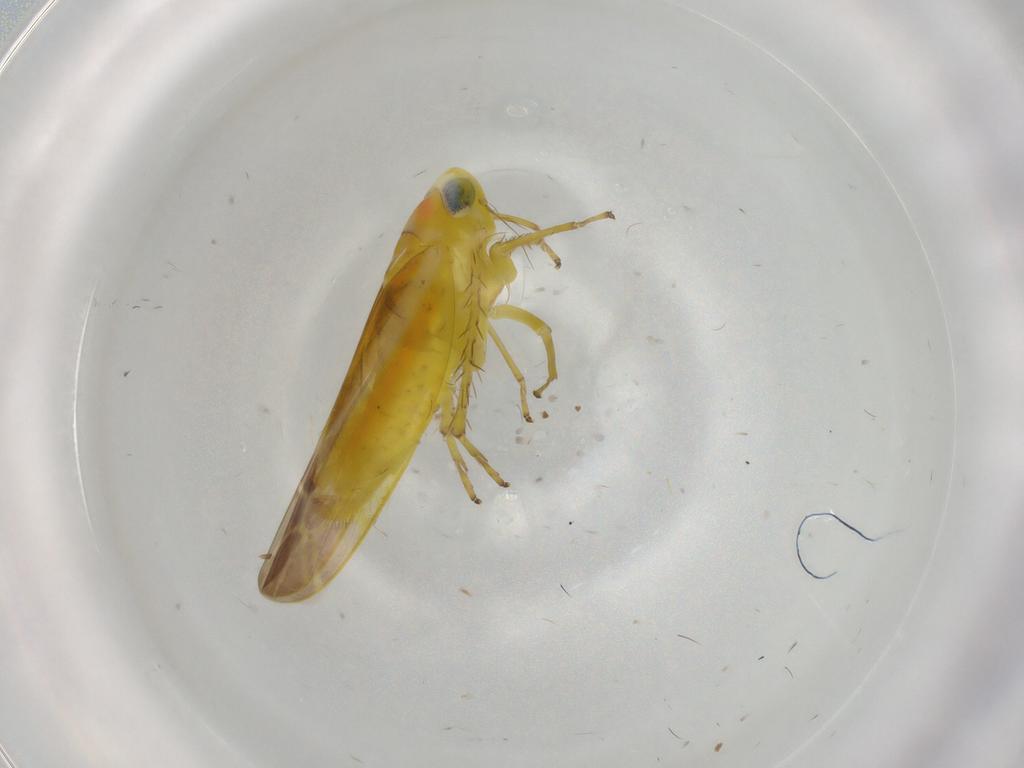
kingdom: Animalia
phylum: Arthropoda
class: Insecta
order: Hemiptera
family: Cicadellidae
